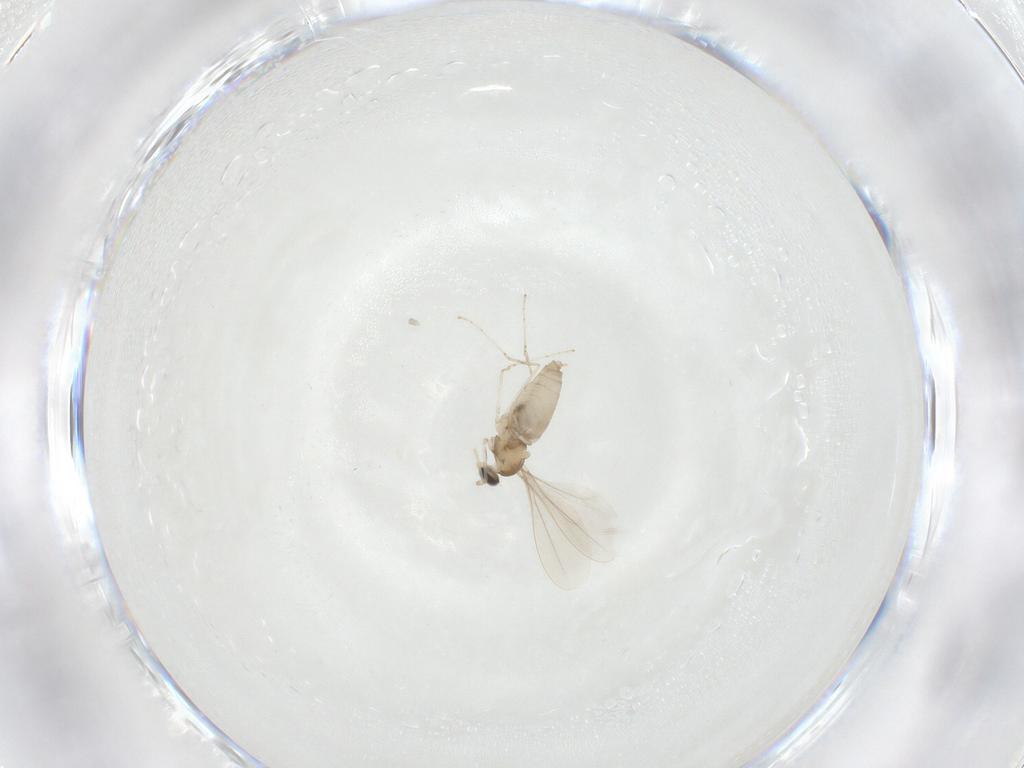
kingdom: Animalia
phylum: Arthropoda
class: Insecta
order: Diptera
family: Cecidomyiidae
